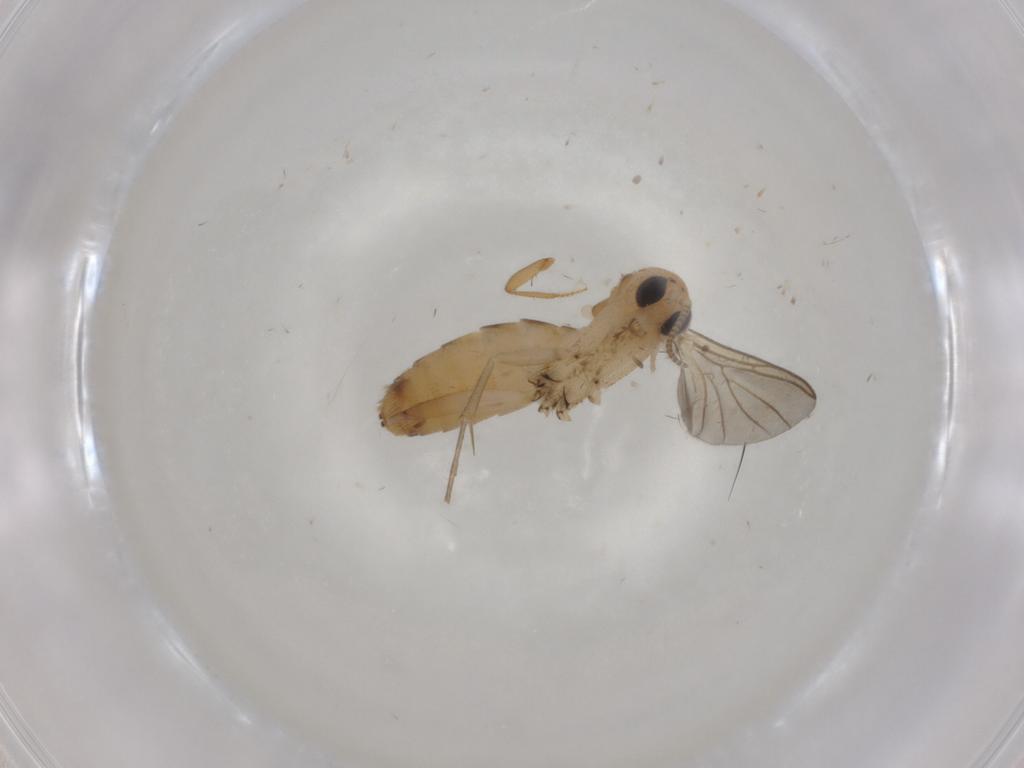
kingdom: Animalia
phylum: Arthropoda
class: Insecta
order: Diptera
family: Mycetophilidae
